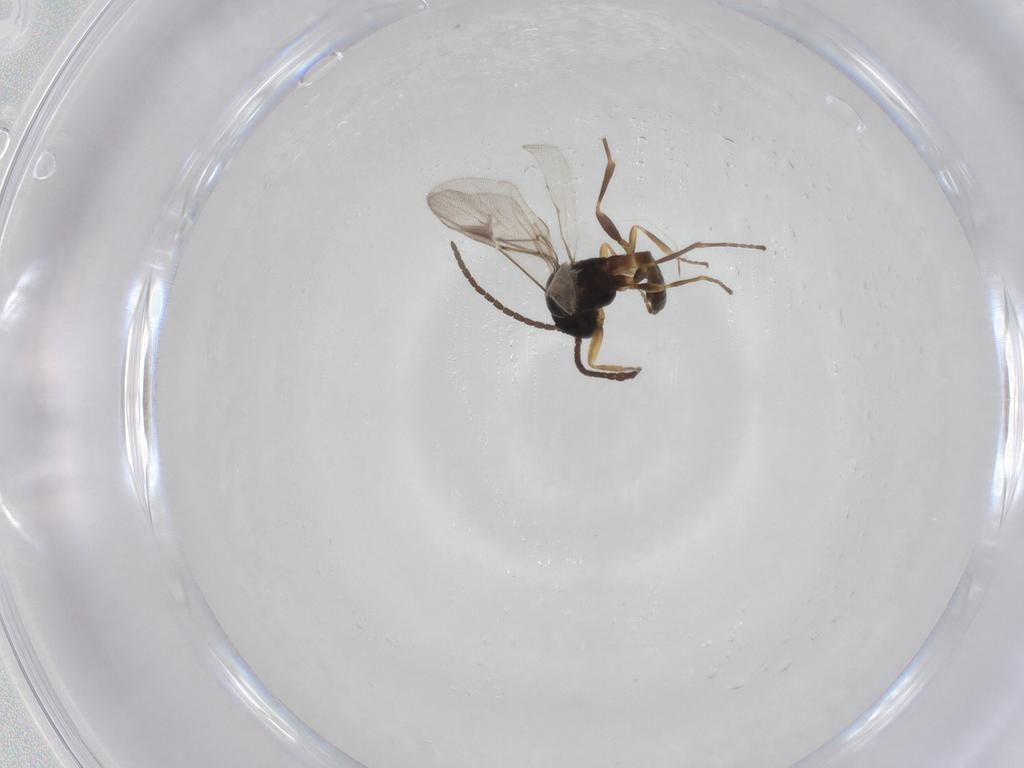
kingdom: Animalia
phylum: Arthropoda
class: Insecta
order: Hymenoptera
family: Braconidae
